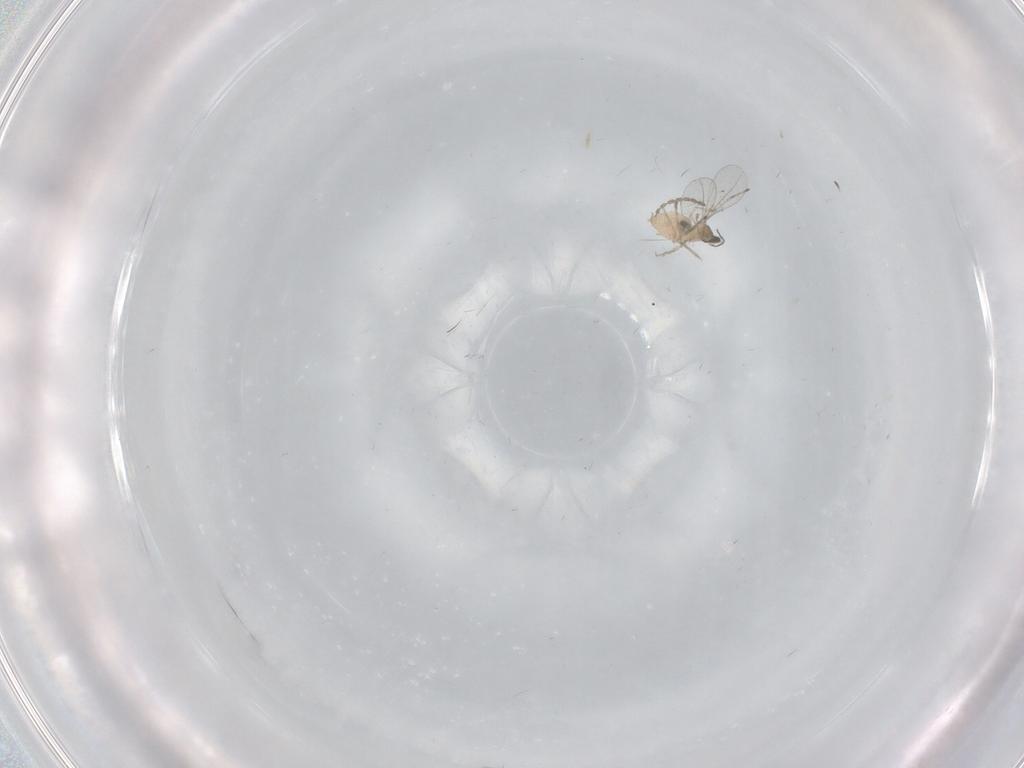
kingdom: Animalia
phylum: Arthropoda
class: Insecta
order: Diptera
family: Cecidomyiidae
